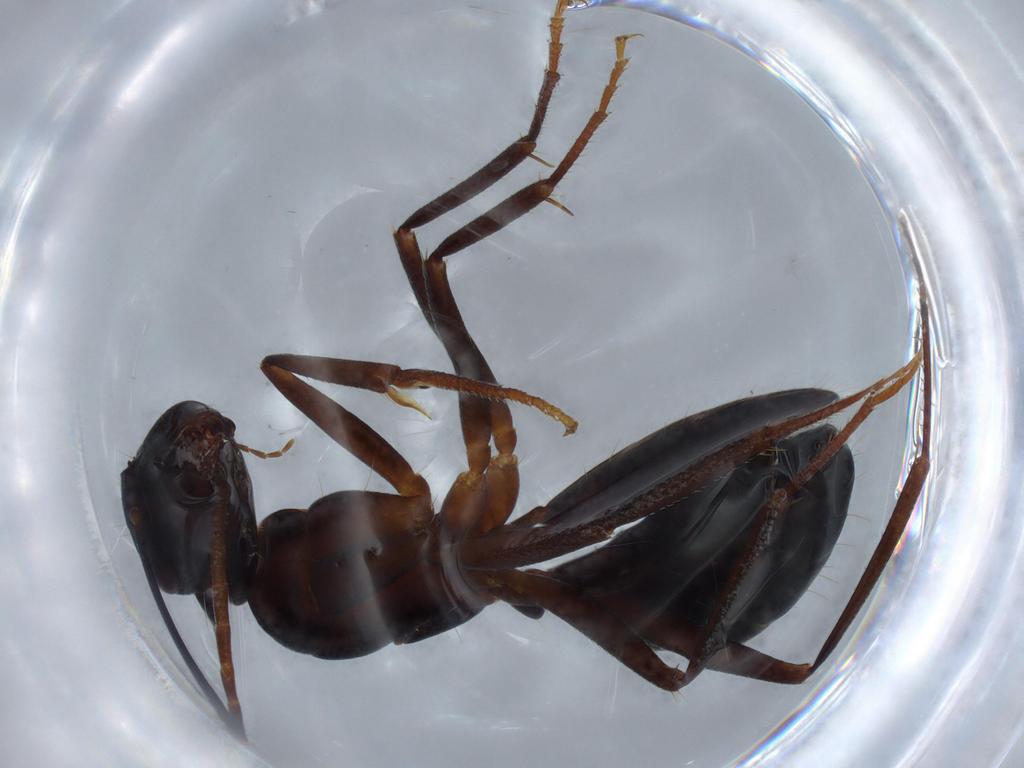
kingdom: Animalia
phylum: Arthropoda
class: Insecta
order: Hymenoptera
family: Formicidae
